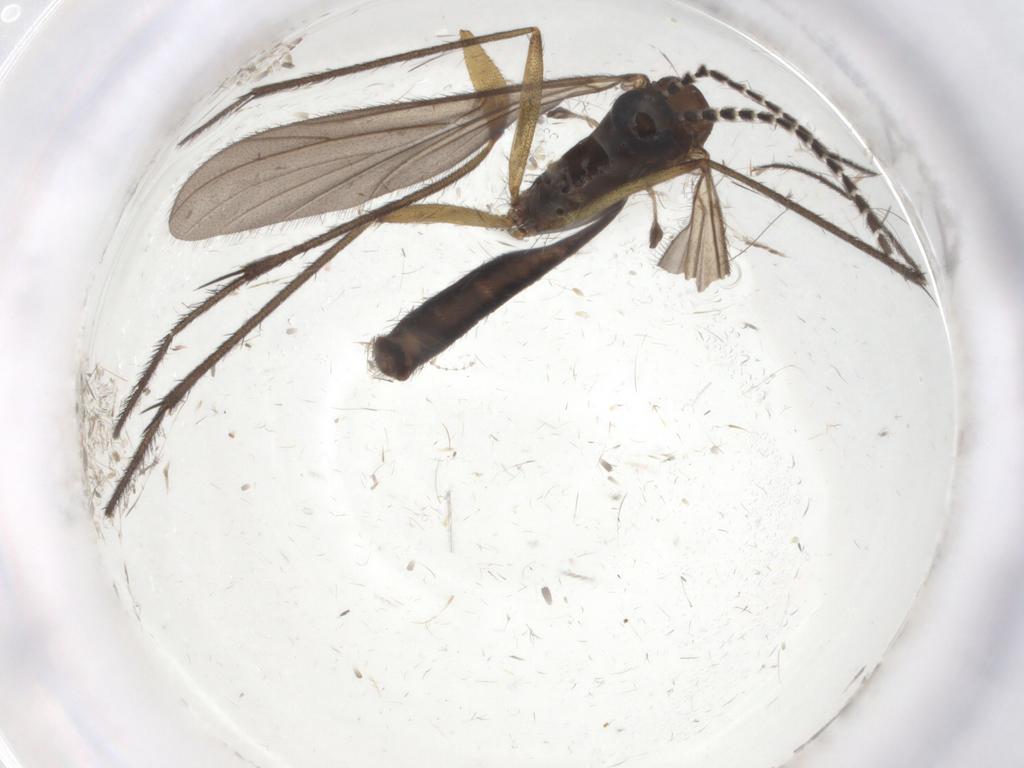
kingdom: Animalia
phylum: Arthropoda
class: Insecta
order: Diptera
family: Ditomyiidae
